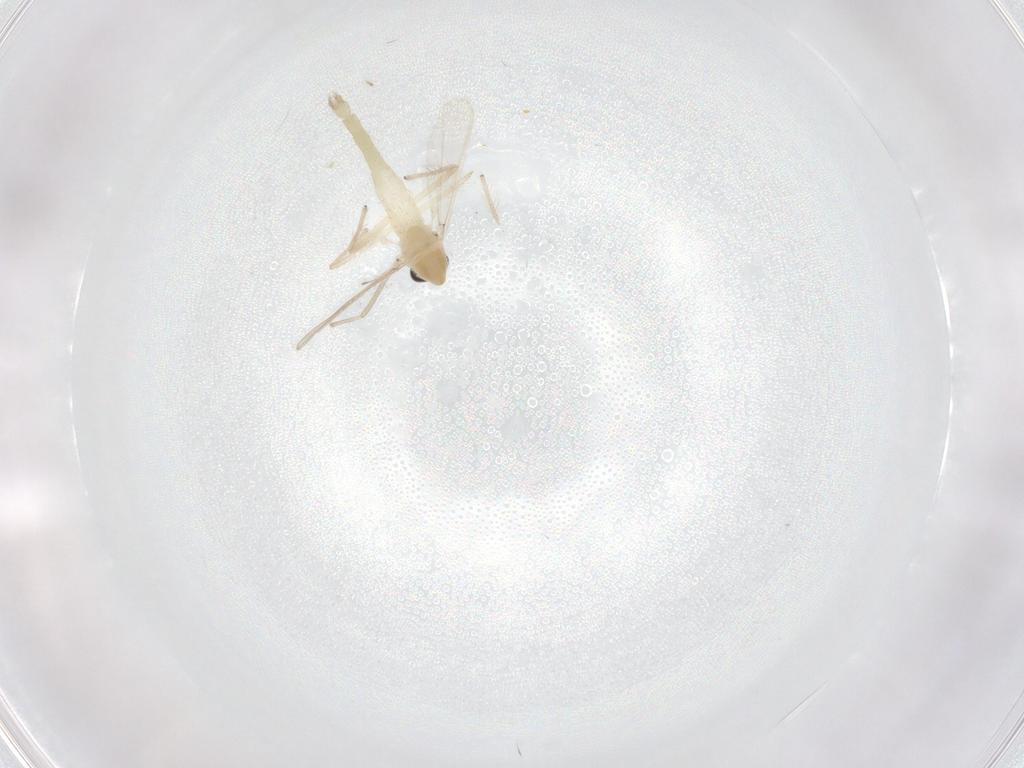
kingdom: Animalia
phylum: Arthropoda
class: Insecta
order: Diptera
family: Chironomidae
